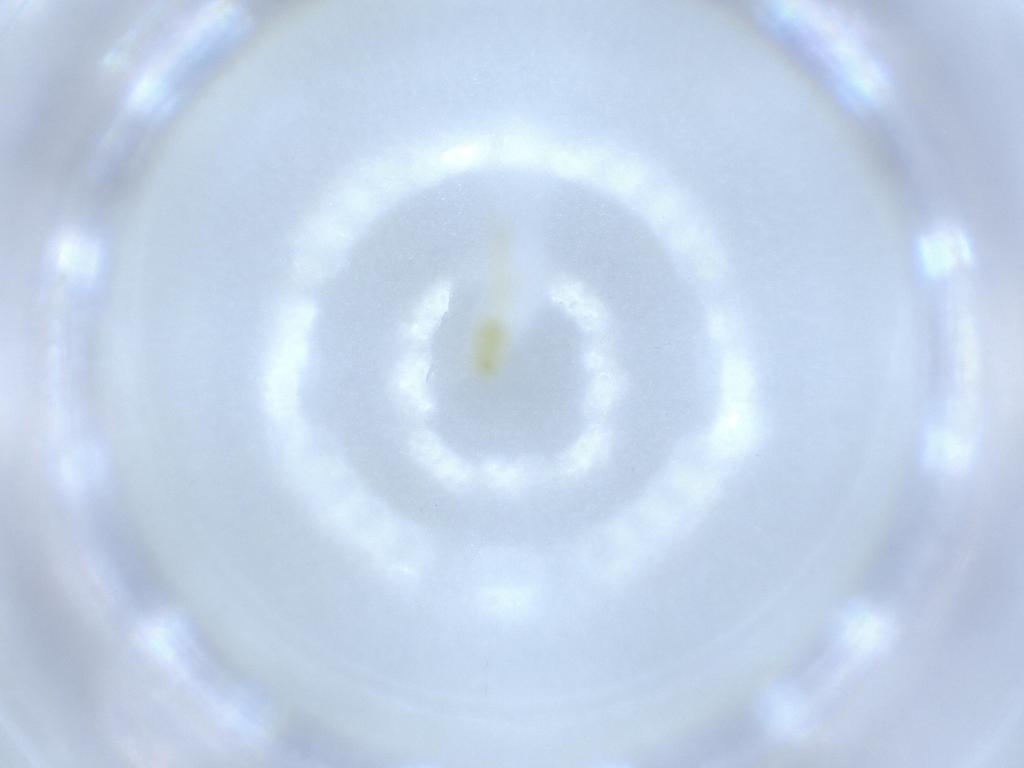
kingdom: Animalia
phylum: Arthropoda
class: Insecta
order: Hemiptera
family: Aleyrodidae
